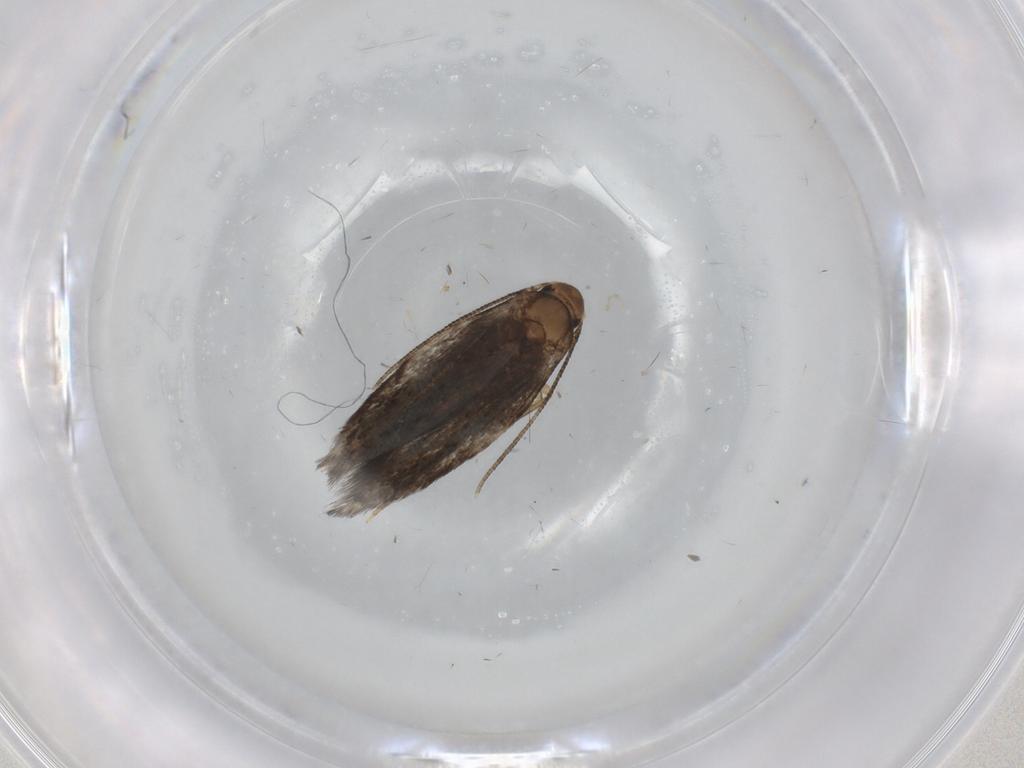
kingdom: Animalia
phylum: Arthropoda
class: Insecta
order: Lepidoptera
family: Gelechiidae
